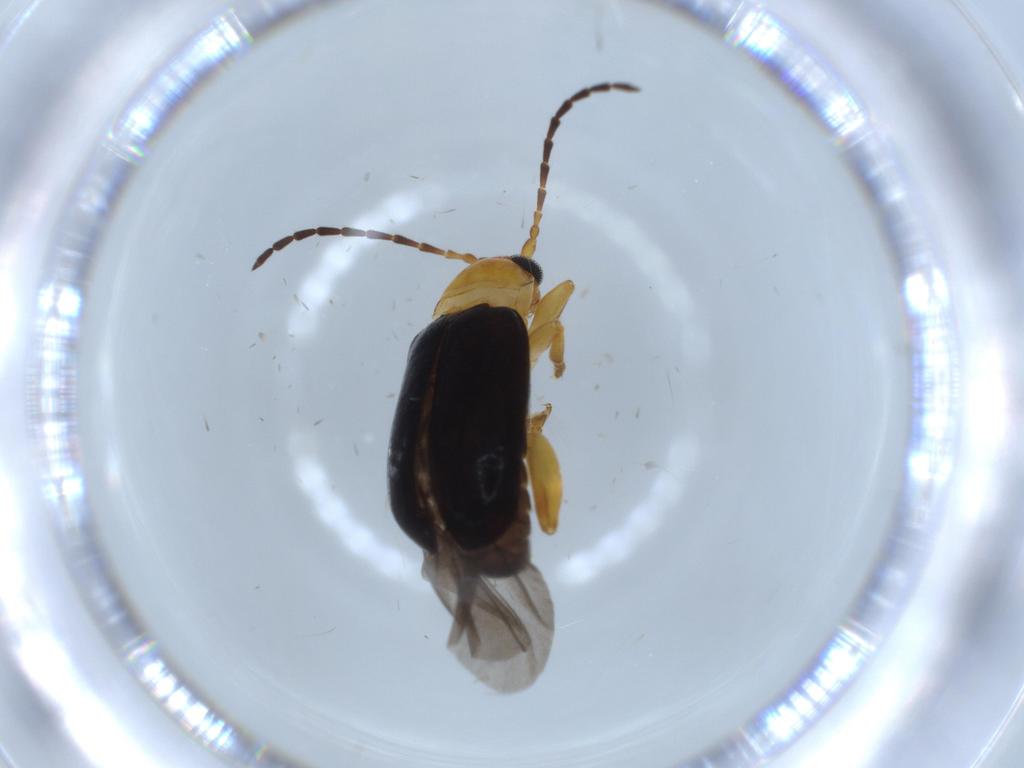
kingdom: Animalia
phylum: Arthropoda
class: Insecta
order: Coleoptera
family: Chrysomelidae
